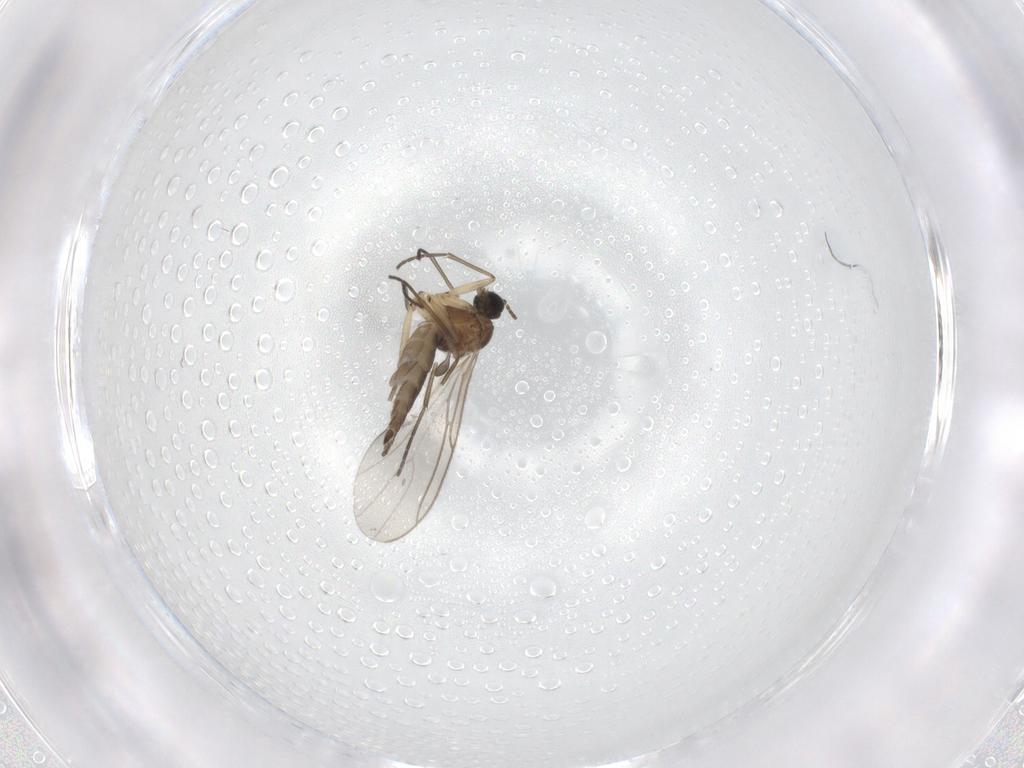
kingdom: Animalia
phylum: Arthropoda
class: Insecta
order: Diptera
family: Sciaridae
